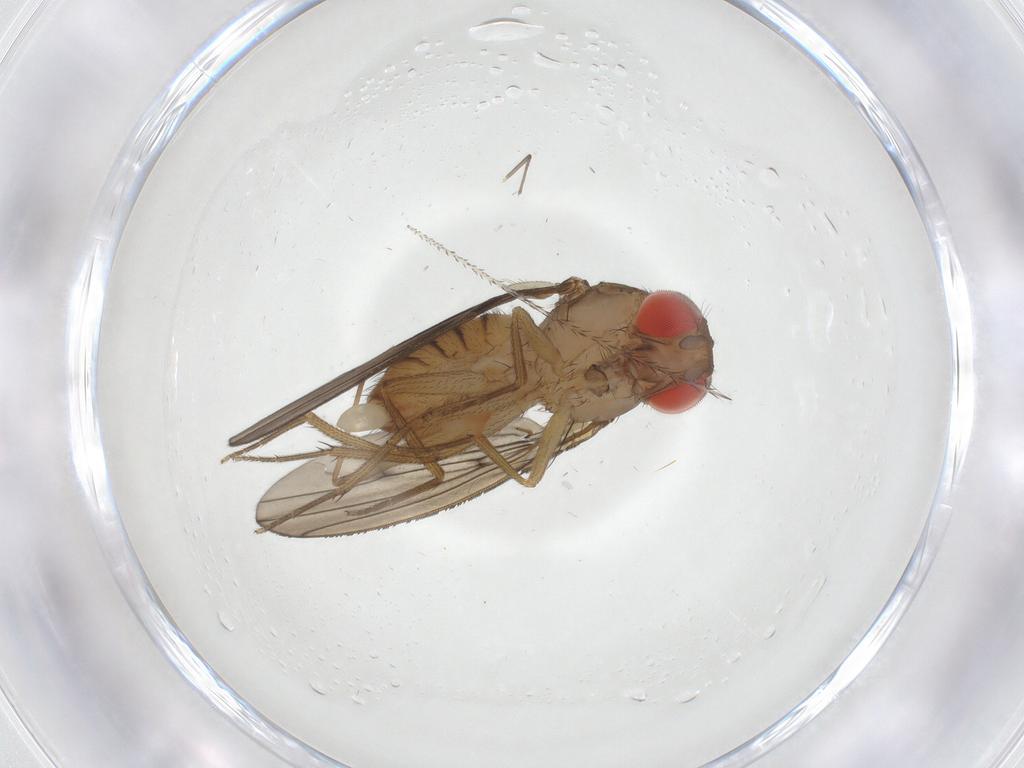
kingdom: Animalia
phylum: Arthropoda
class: Insecta
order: Diptera
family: Drosophilidae
